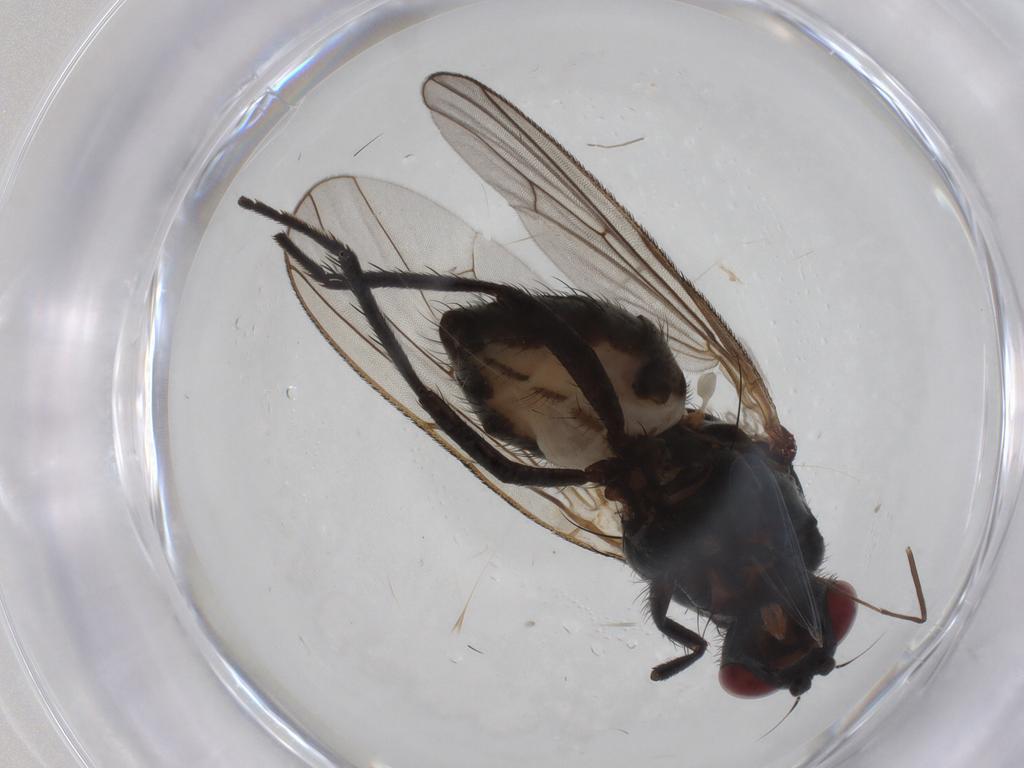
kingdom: Animalia
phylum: Arthropoda
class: Insecta
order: Diptera
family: Anthomyiidae
